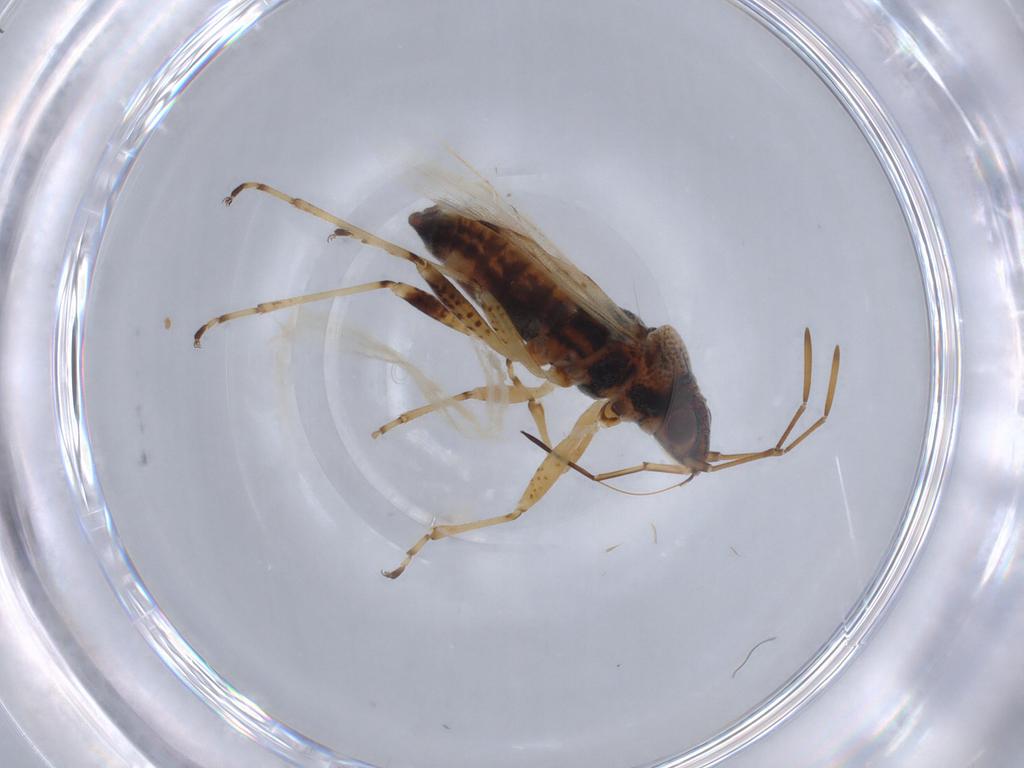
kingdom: Animalia
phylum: Arthropoda
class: Insecta
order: Hemiptera
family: Lygaeidae
